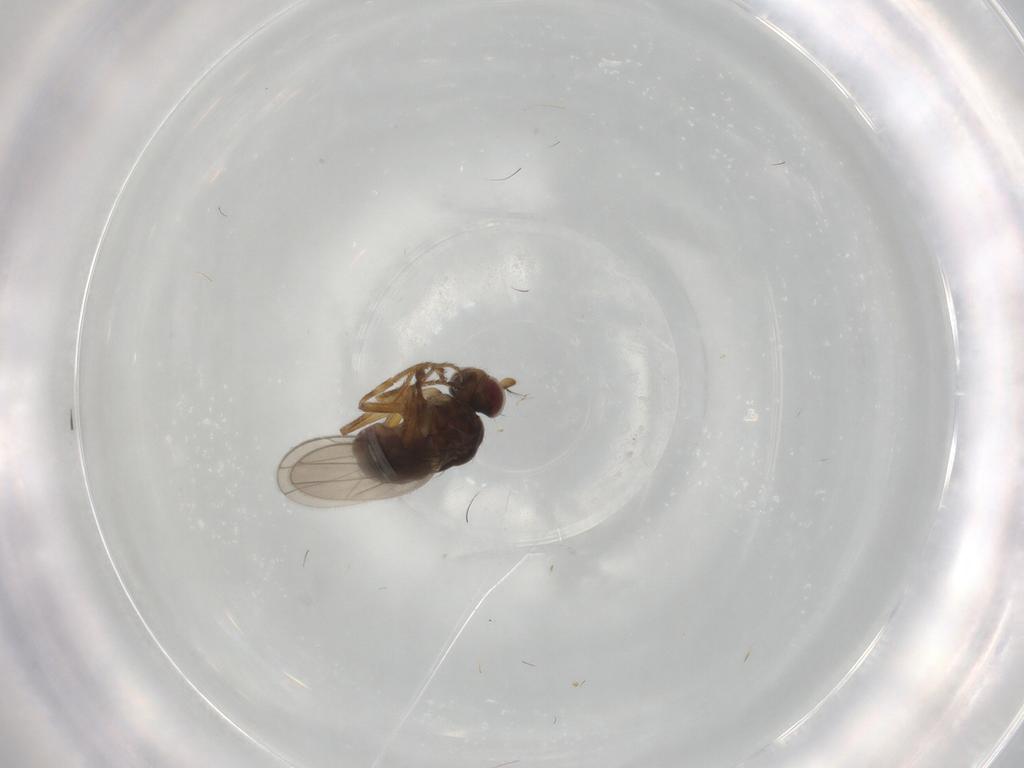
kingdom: Animalia
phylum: Arthropoda
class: Insecta
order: Diptera
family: Ephydridae
